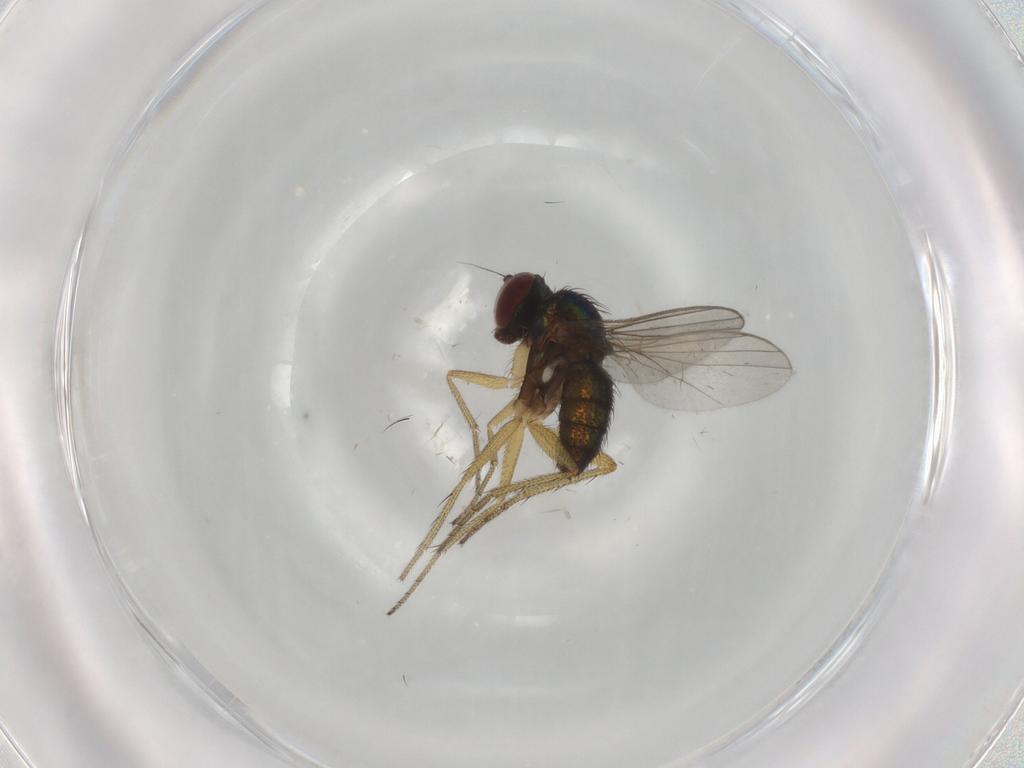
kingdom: Animalia
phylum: Arthropoda
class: Insecta
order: Diptera
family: Dolichopodidae
